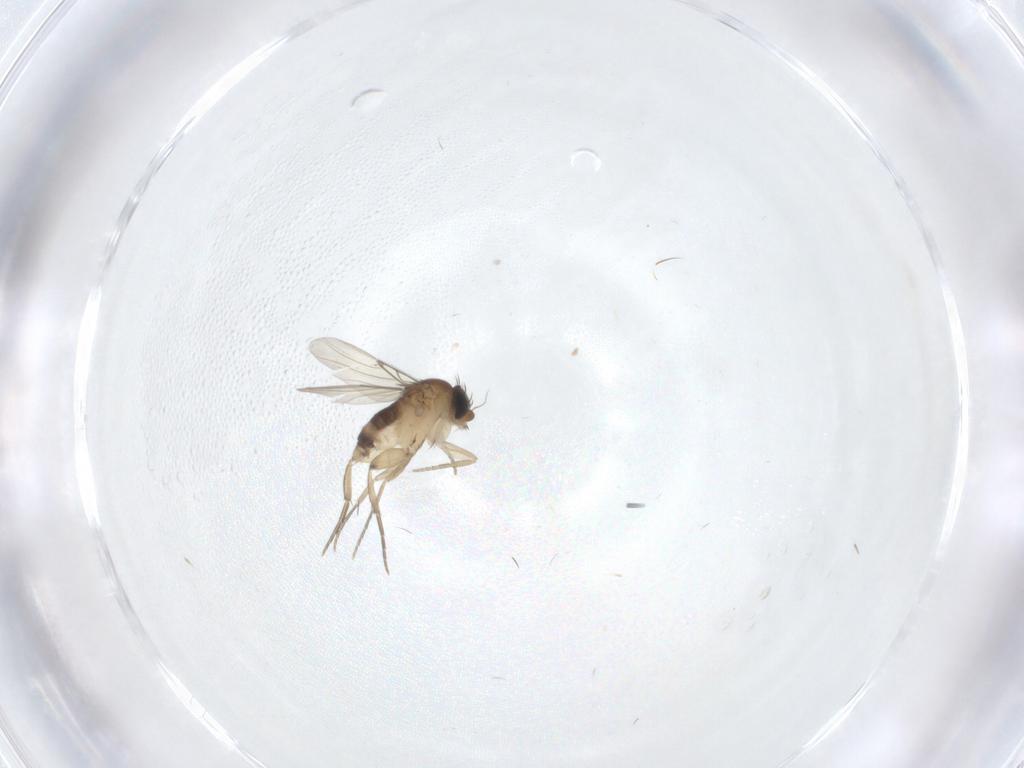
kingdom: Animalia
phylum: Arthropoda
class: Insecta
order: Diptera
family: Phoridae
